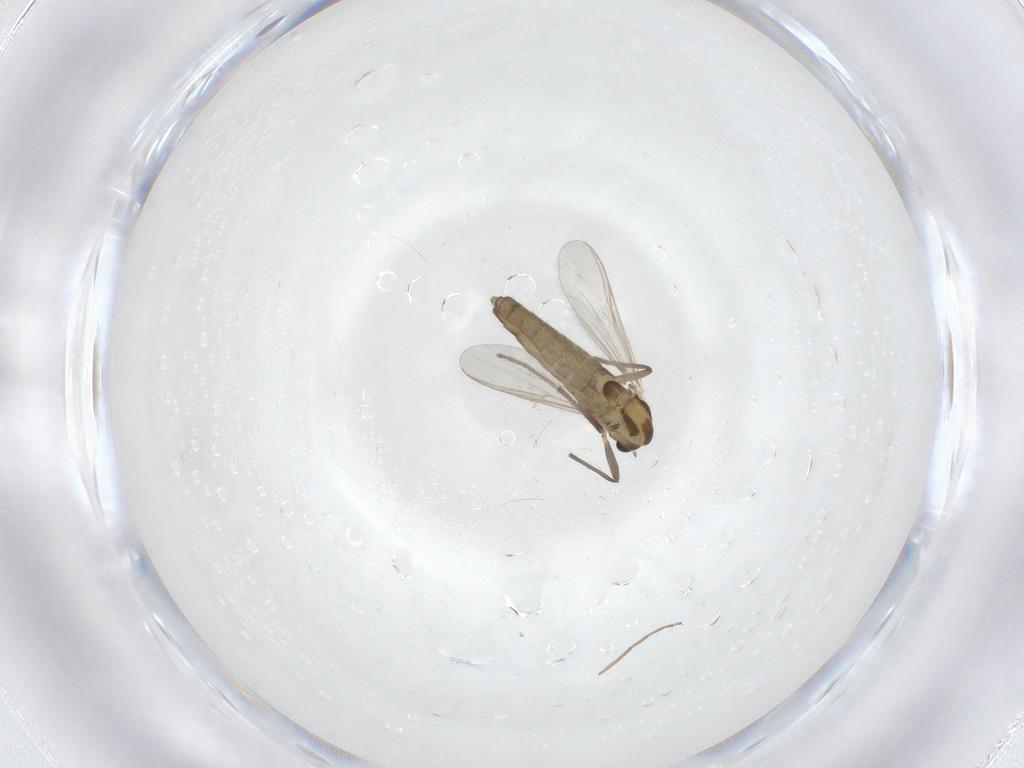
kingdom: Animalia
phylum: Arthropoda
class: Insecta
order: Diptera
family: Chironomidae
